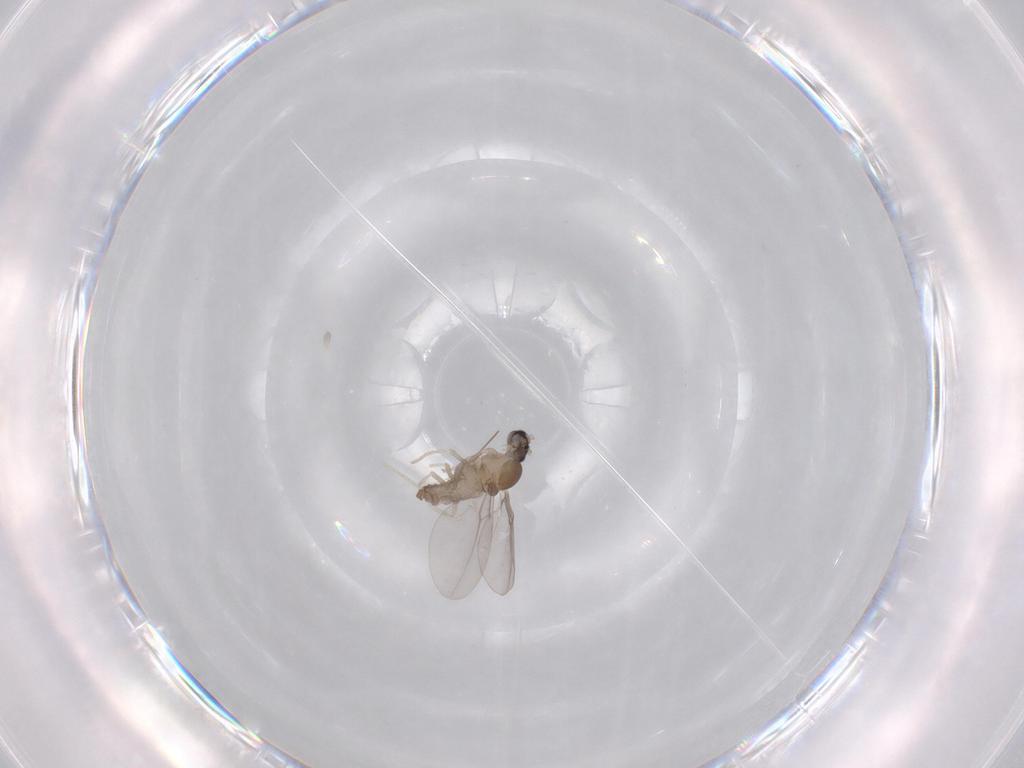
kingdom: Animalia
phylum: Arthropoda
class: Insecta
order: Diptera
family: Cecidomyiidae
